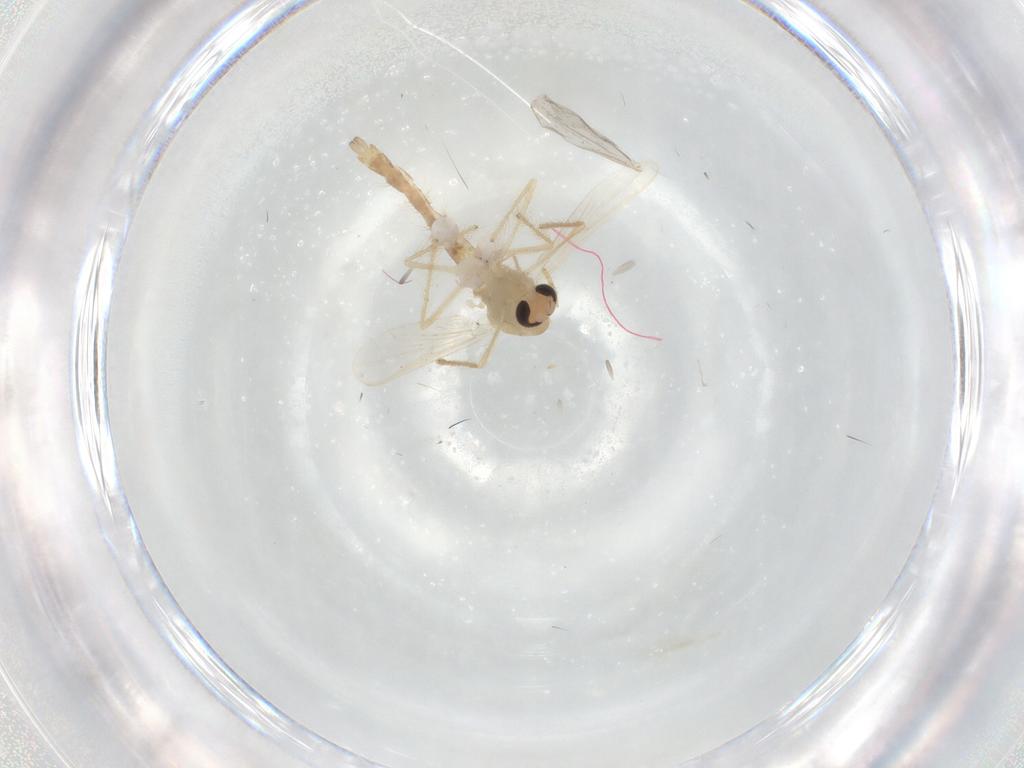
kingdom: Animalia
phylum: Arthropoda
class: Insecta
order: Diptera
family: Chironomidae
